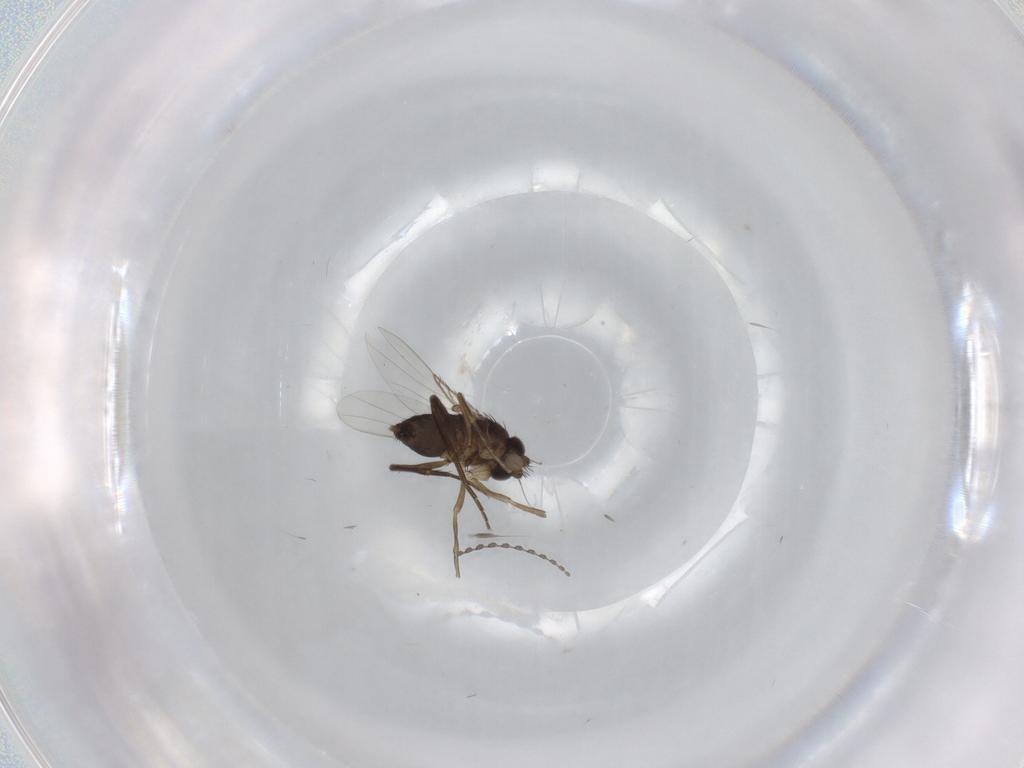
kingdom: Animalia
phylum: Arthropoda
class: Insecta
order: Diptera
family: Phoridae
